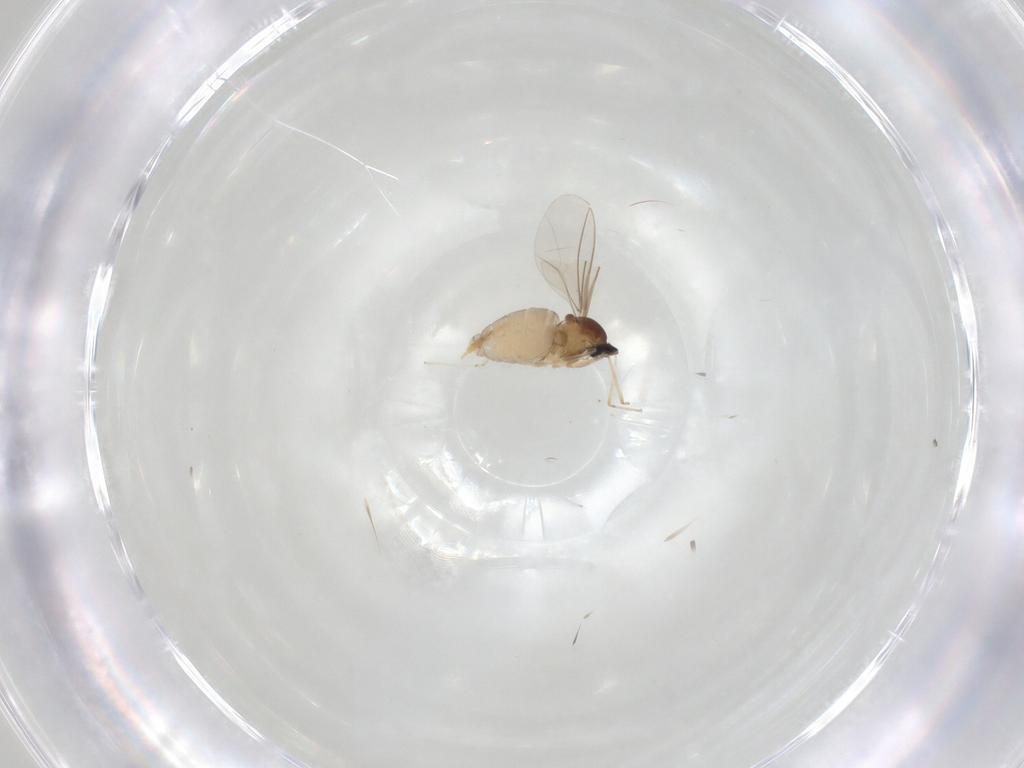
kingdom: Animalia
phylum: Arthropoda
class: Insecta
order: Diptera
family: Chironomidae
